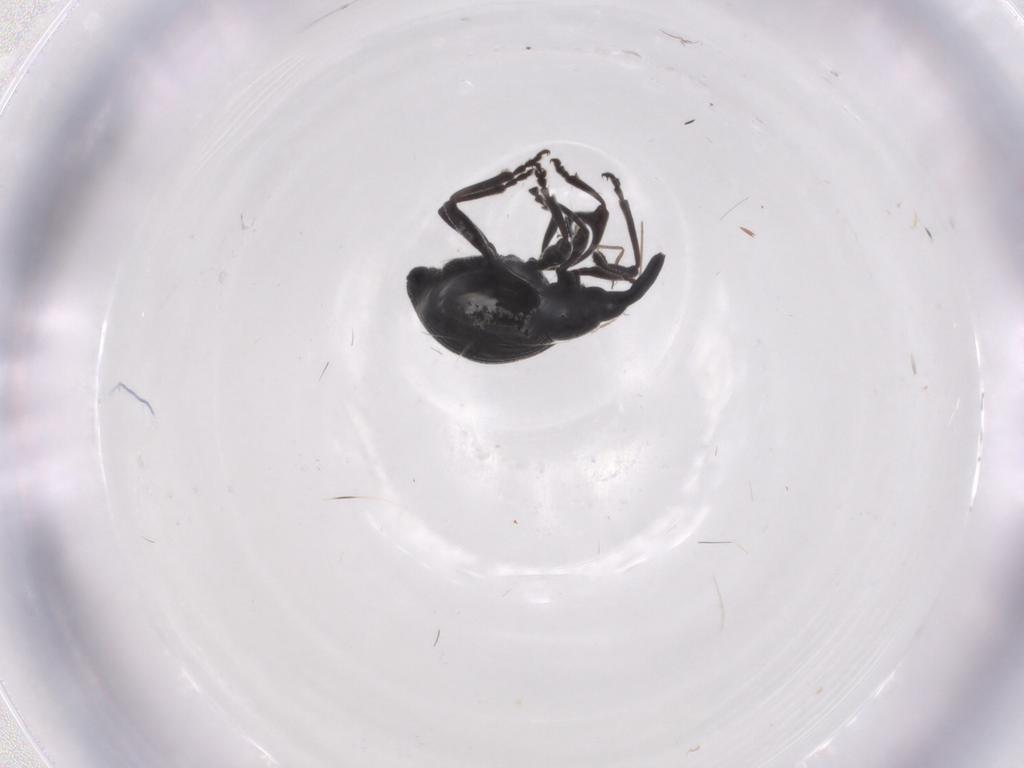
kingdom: Animalia
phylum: Arthropoda
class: Insecta
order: Coleoptera
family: Brentidae
